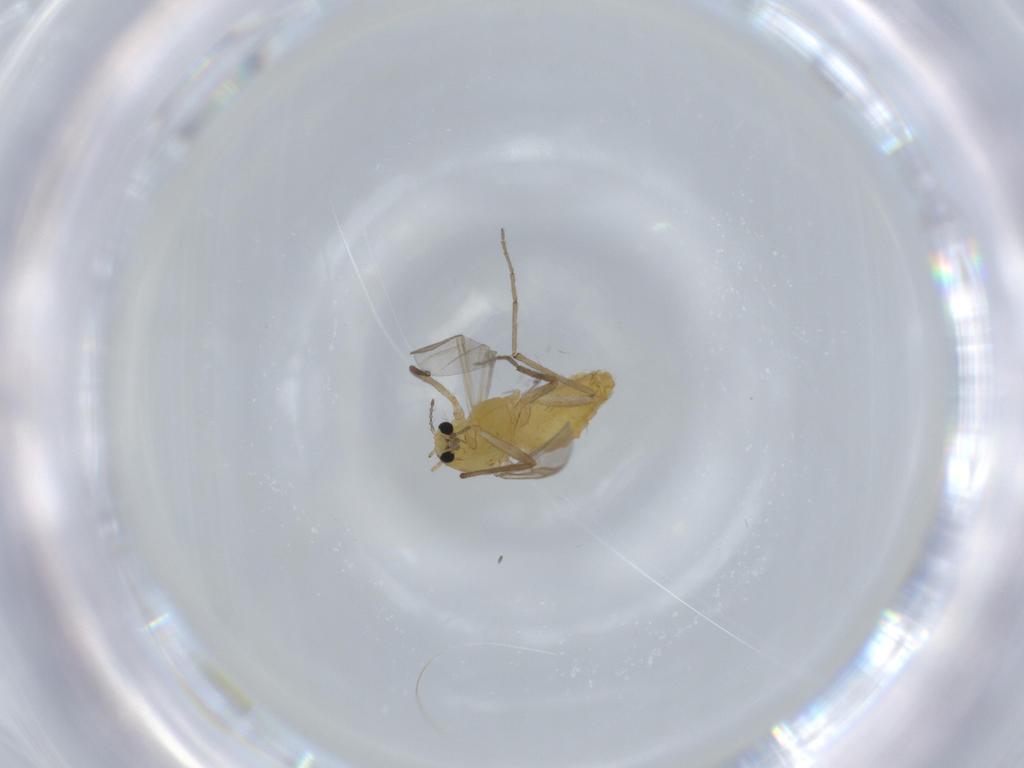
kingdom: Animalia
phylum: Arthropoda
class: Insecta
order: Diptera
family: Chironomidae
